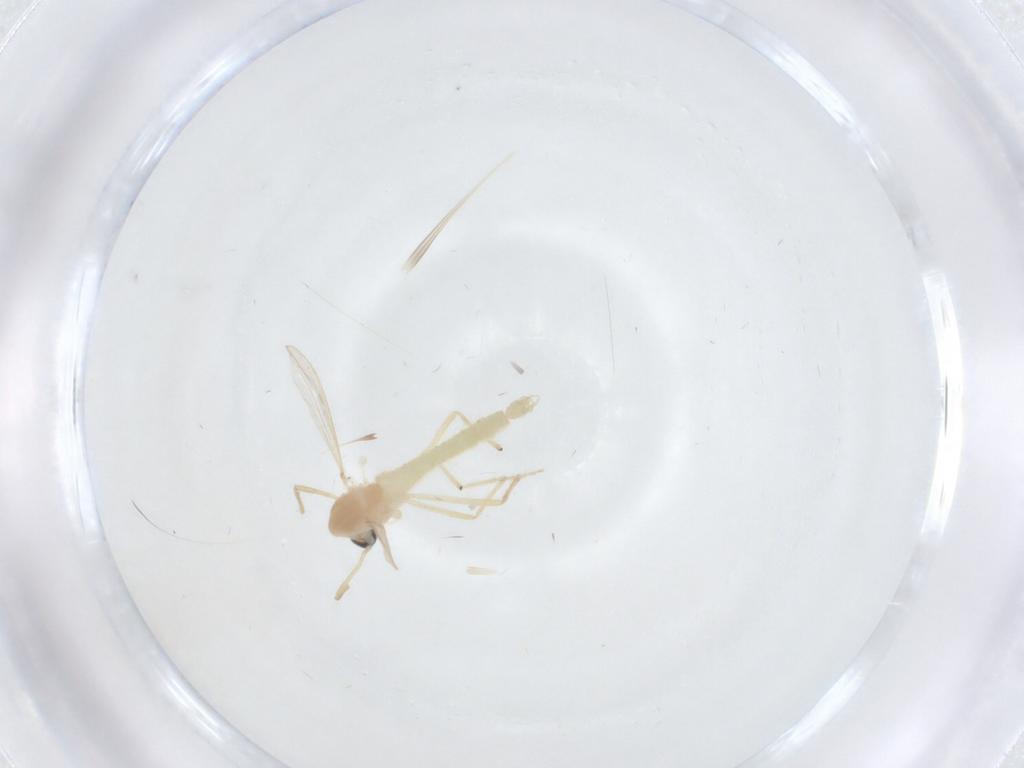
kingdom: Animalia
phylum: Arthropoda
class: Insecta
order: Diptera
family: Chironomidae
